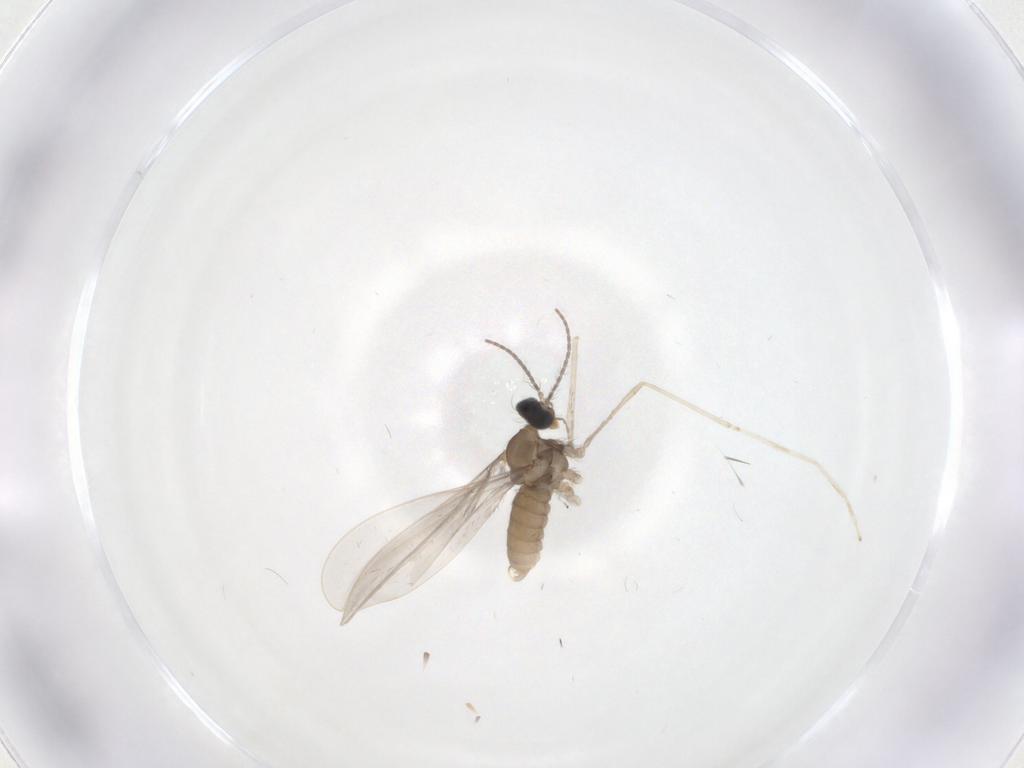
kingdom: Animalia
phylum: Arthropoda
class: Insecta
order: Diptera
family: Cecidomyiidae
